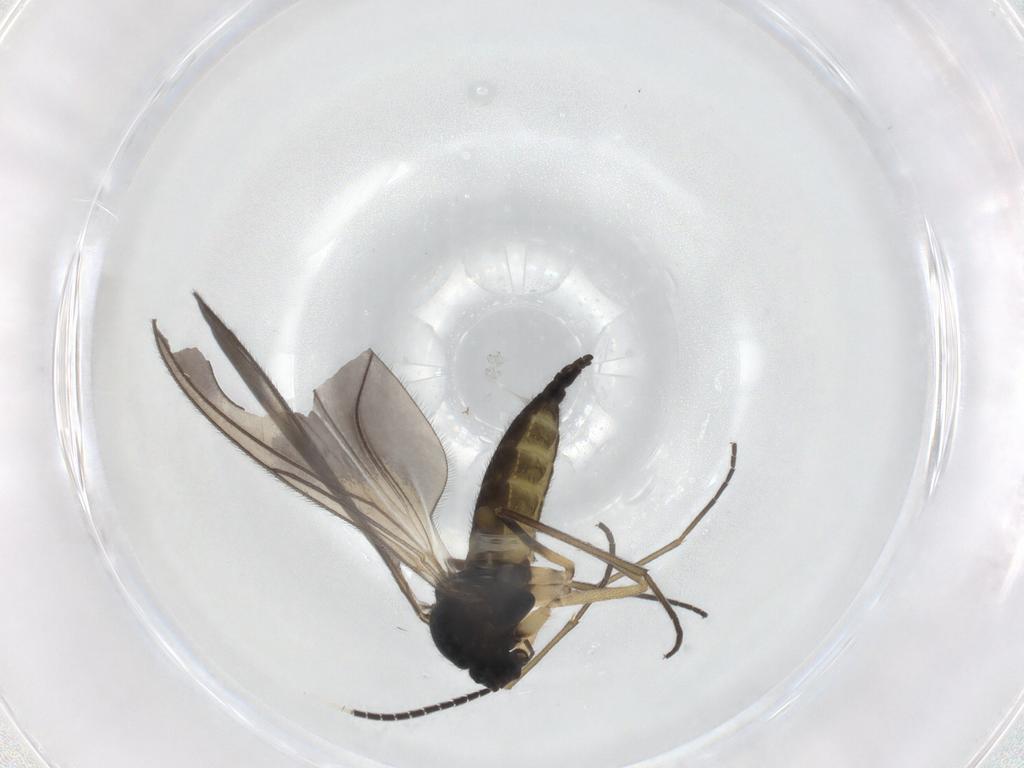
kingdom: Animalia
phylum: Arthropoda
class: Insecta
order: Diptera
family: Sciaridae
